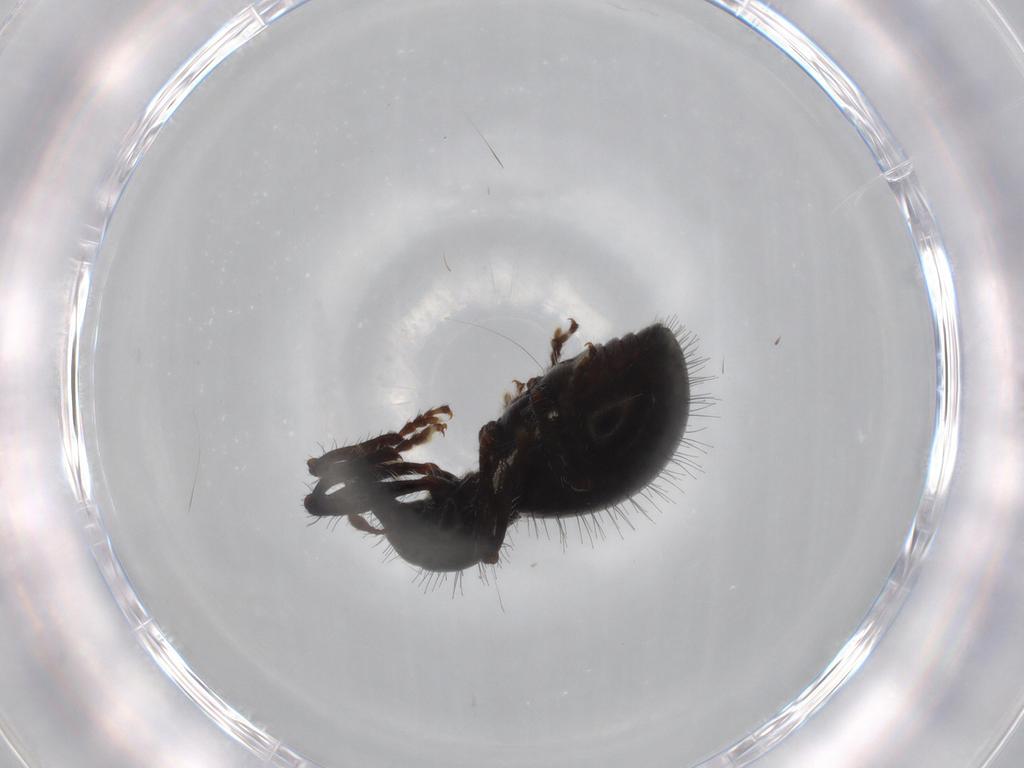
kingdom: Animalia
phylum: Arthropoda
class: Insecta
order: Coleoptera
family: Curculionidae
